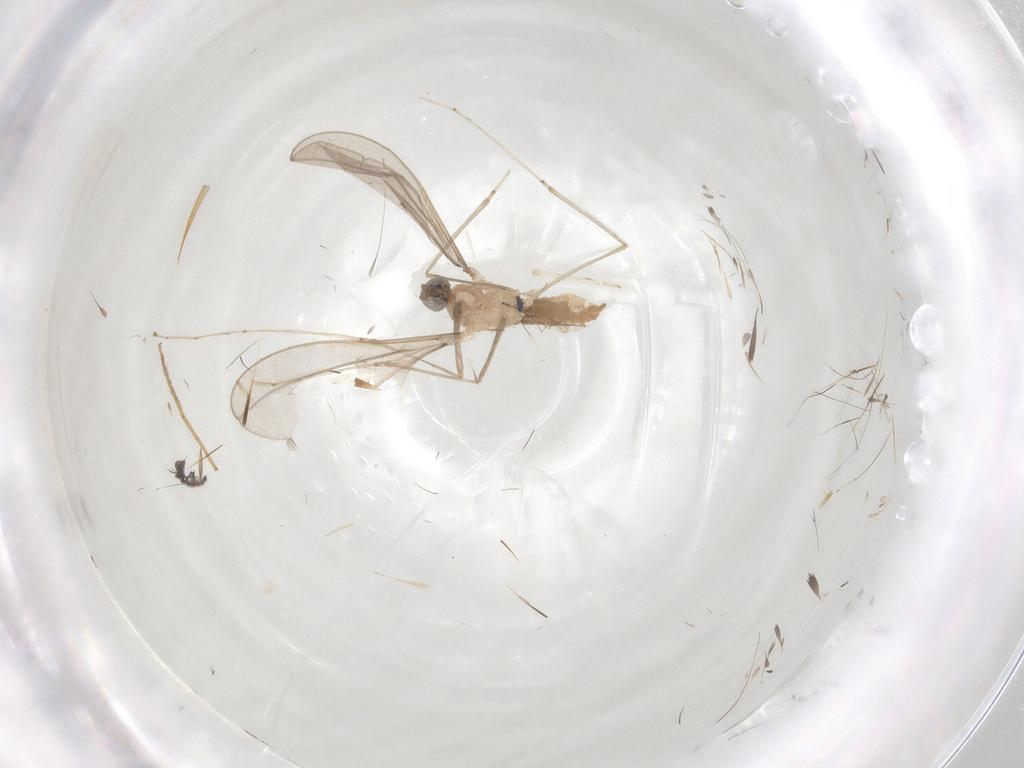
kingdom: Animalia
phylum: Arthropoda
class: Insecta
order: Diptera
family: Cecidomyiidae
